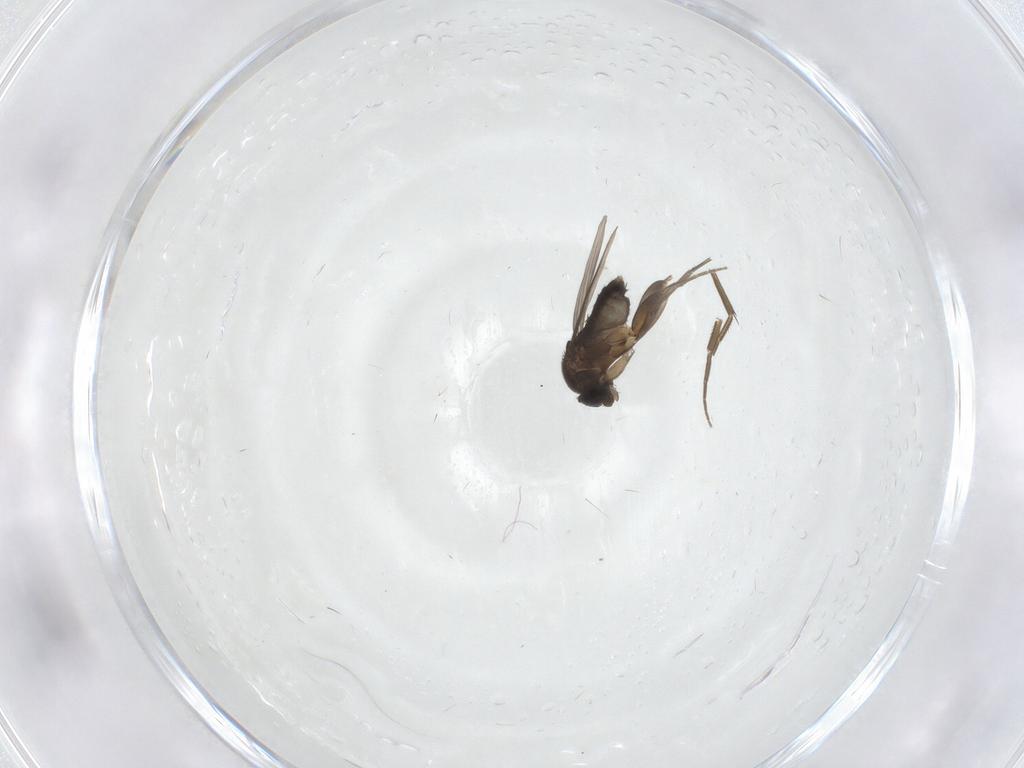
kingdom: Animalia
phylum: Arthropoda
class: Insecta
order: Diptera
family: Phoridae
